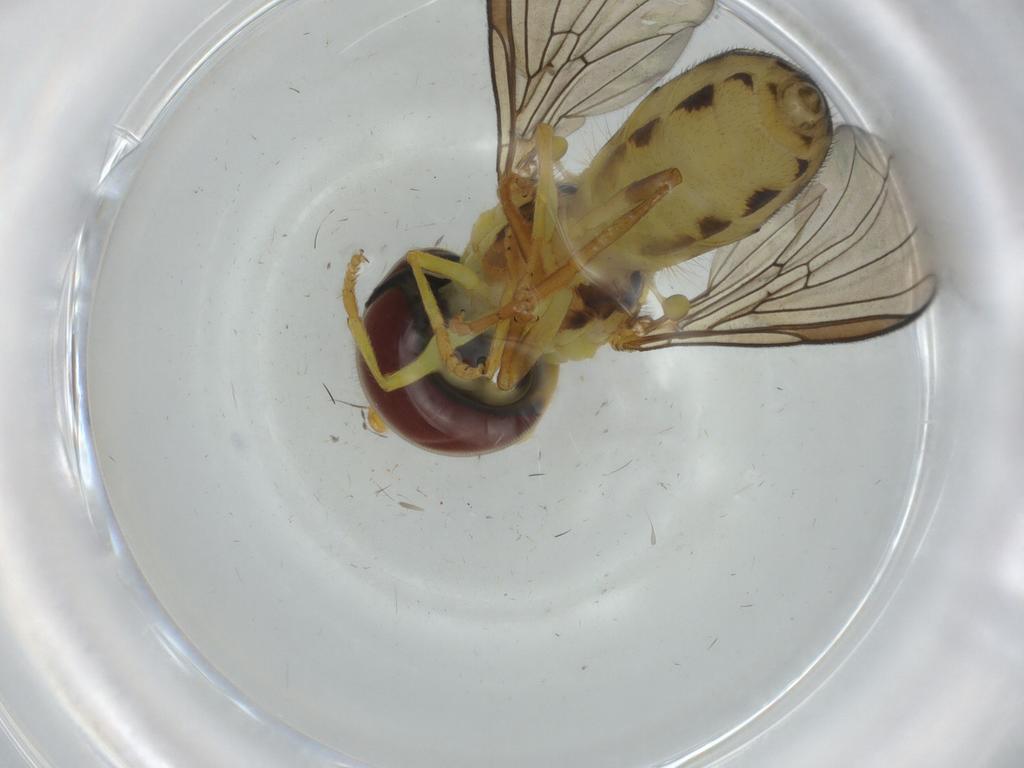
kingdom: Animalia
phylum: Arthropoda
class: Insecta
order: Diptera
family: Syrphidae
